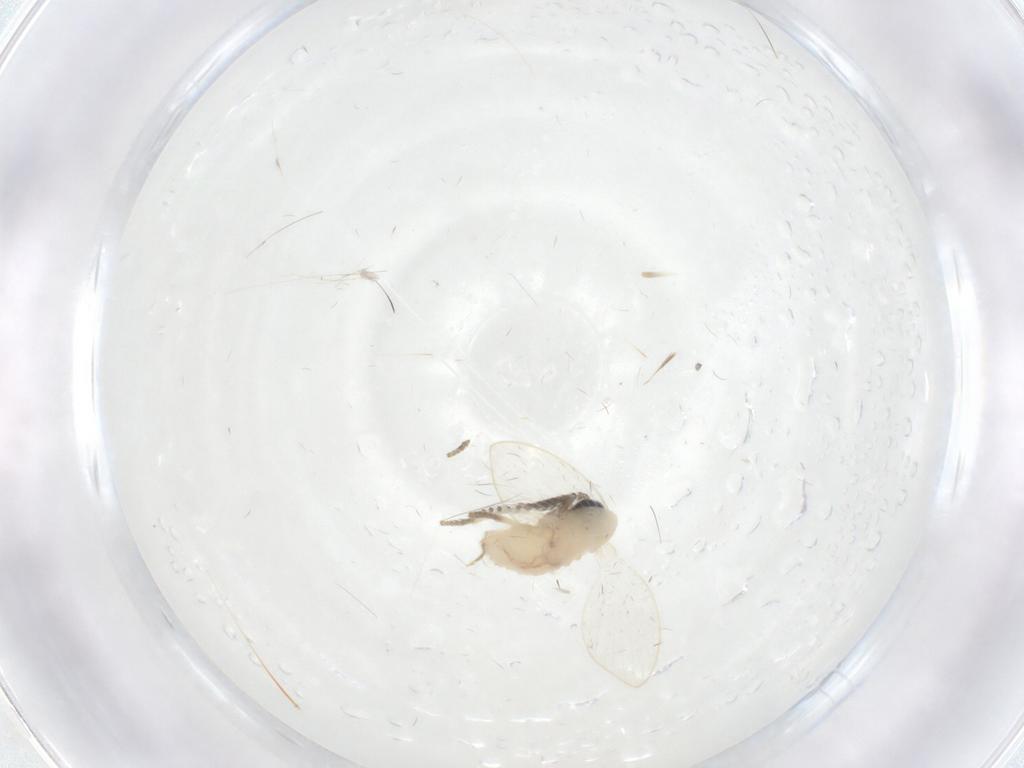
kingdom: Animalia
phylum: Arthropoda
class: Insecta
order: Diptera
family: Psychodidae
